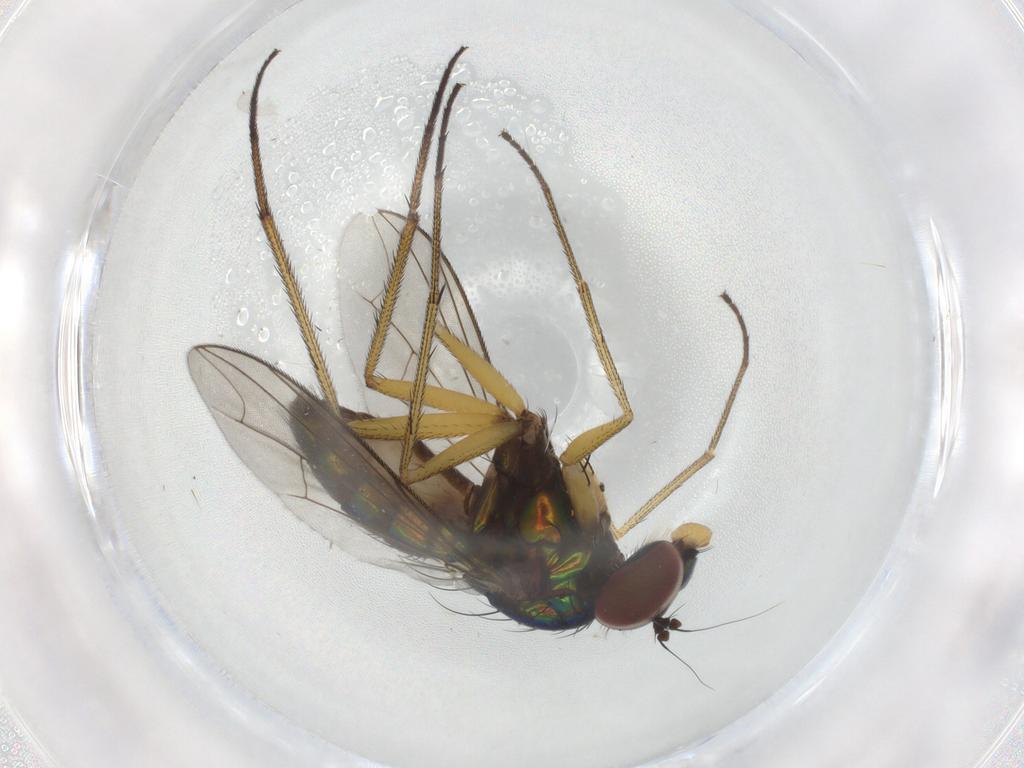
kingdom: Animalia
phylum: Arthropoda
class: Insecta
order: Diptera
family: Dolichopodidae
